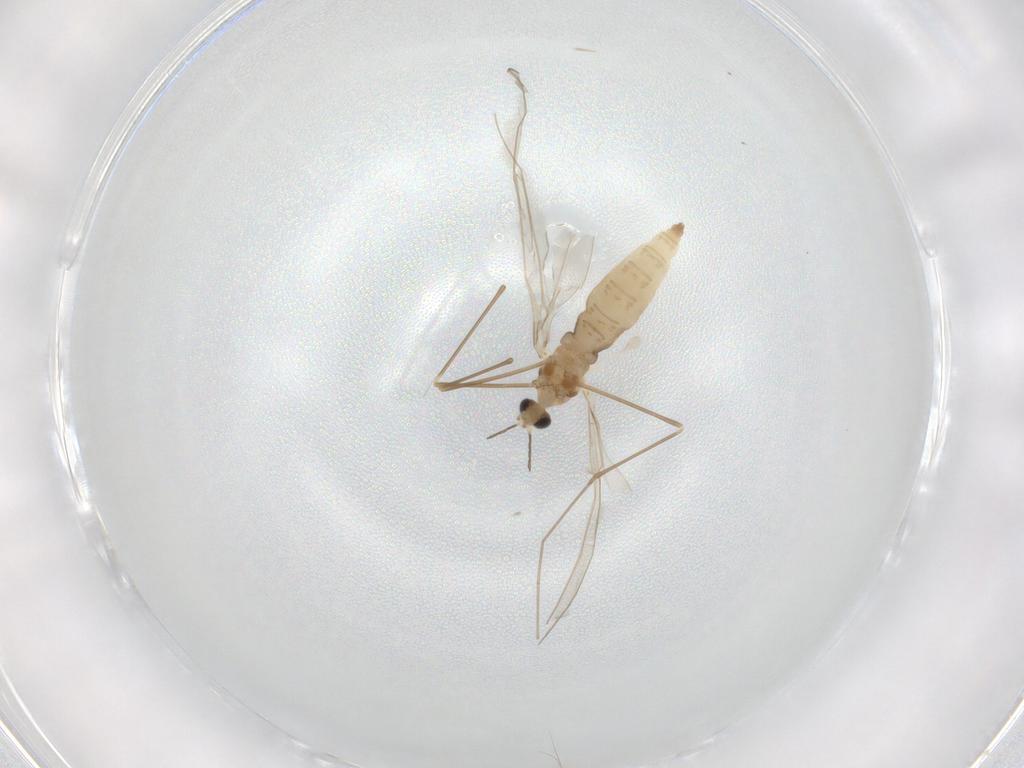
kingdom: Animalia
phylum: Arthropoda
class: Insecta
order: Diptera
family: Cecidomyiidae
